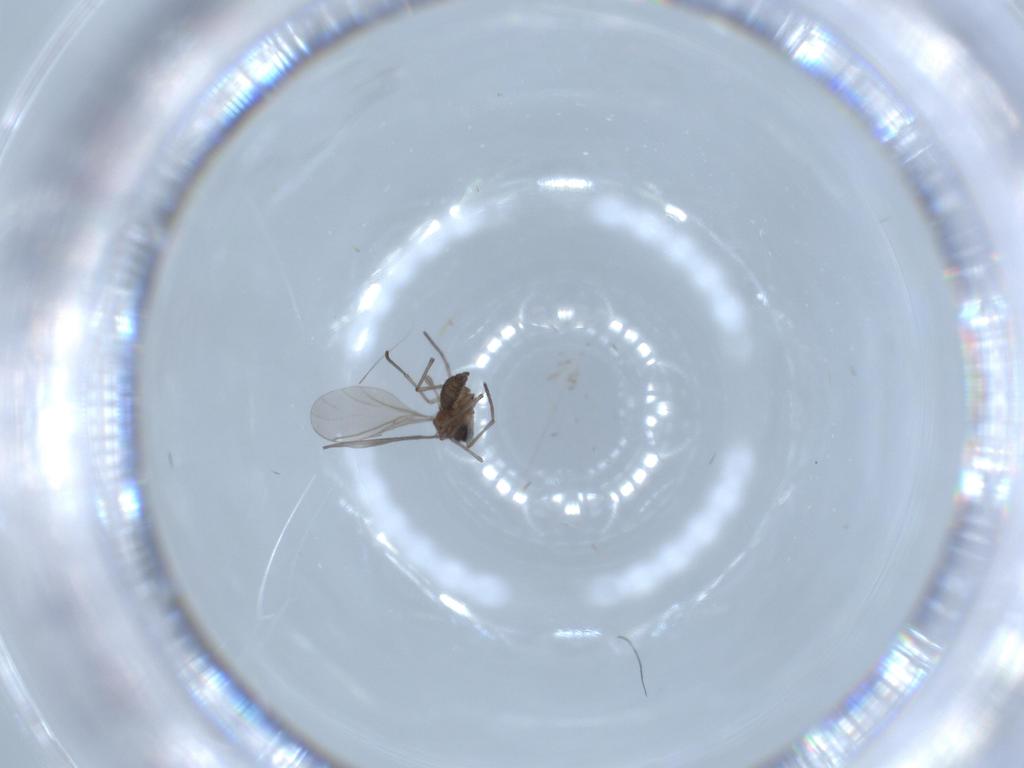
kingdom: Animalia
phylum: Arthropoda
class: Insecta
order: Diptera
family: Sciaridae
